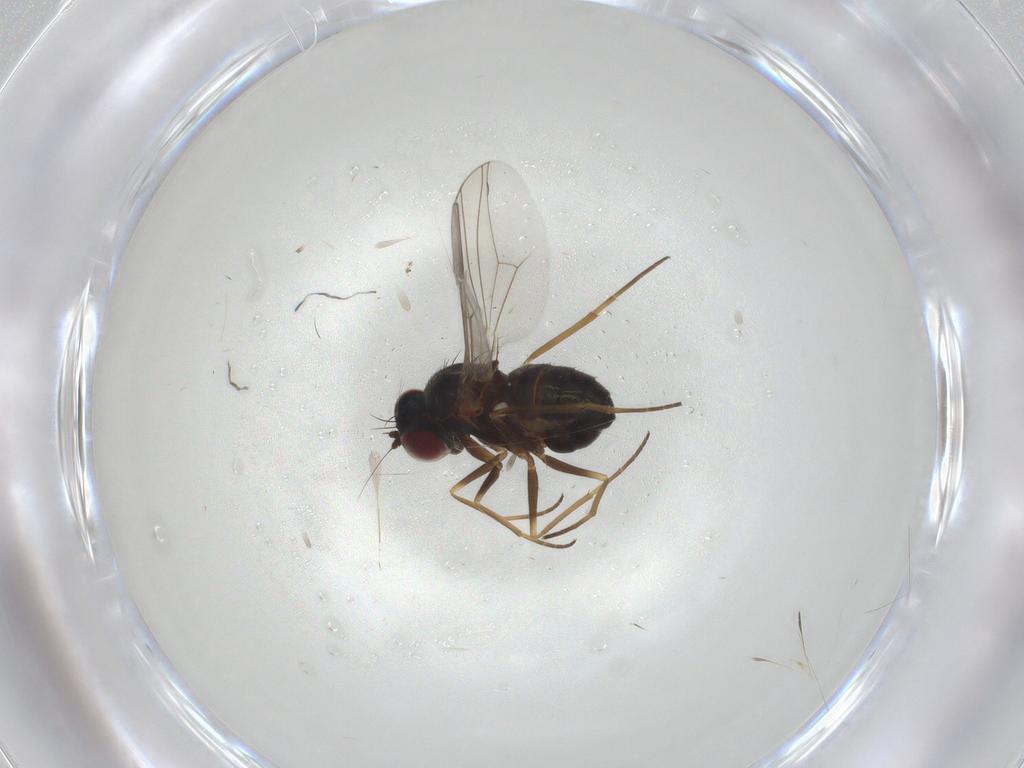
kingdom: Animalia
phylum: Arthropoda
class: Insecta
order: Diptera
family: Dolichopodidae
